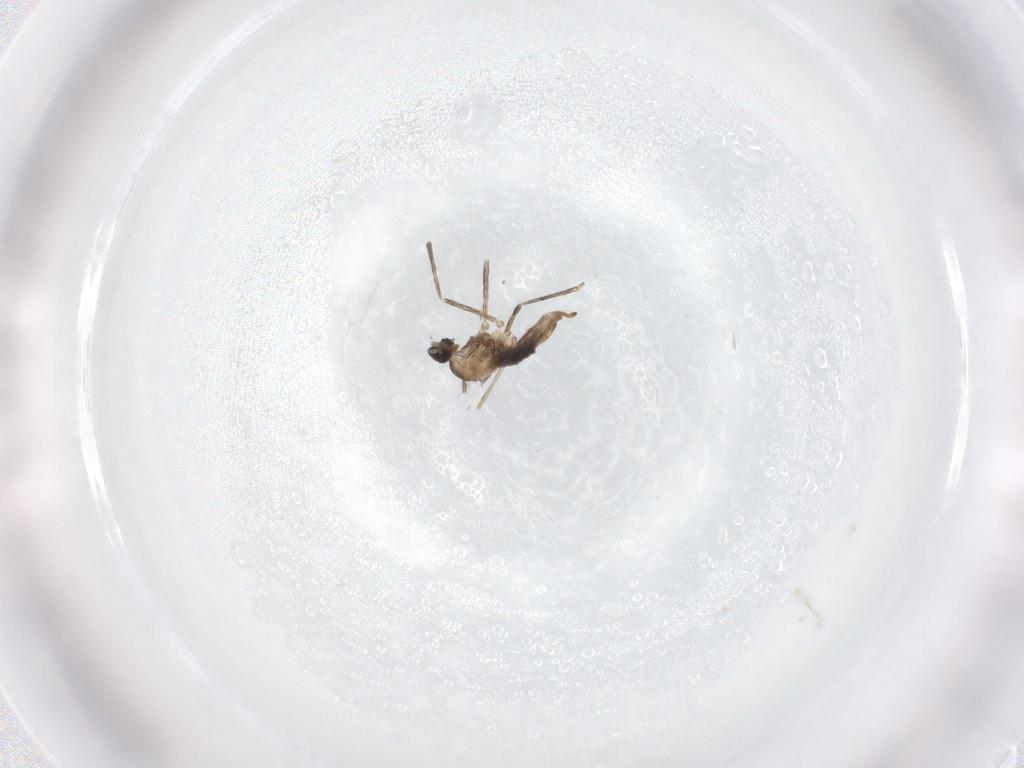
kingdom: Animalia
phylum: Arthropoda
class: Insecta
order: Diptera
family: Cecidomyiidae
